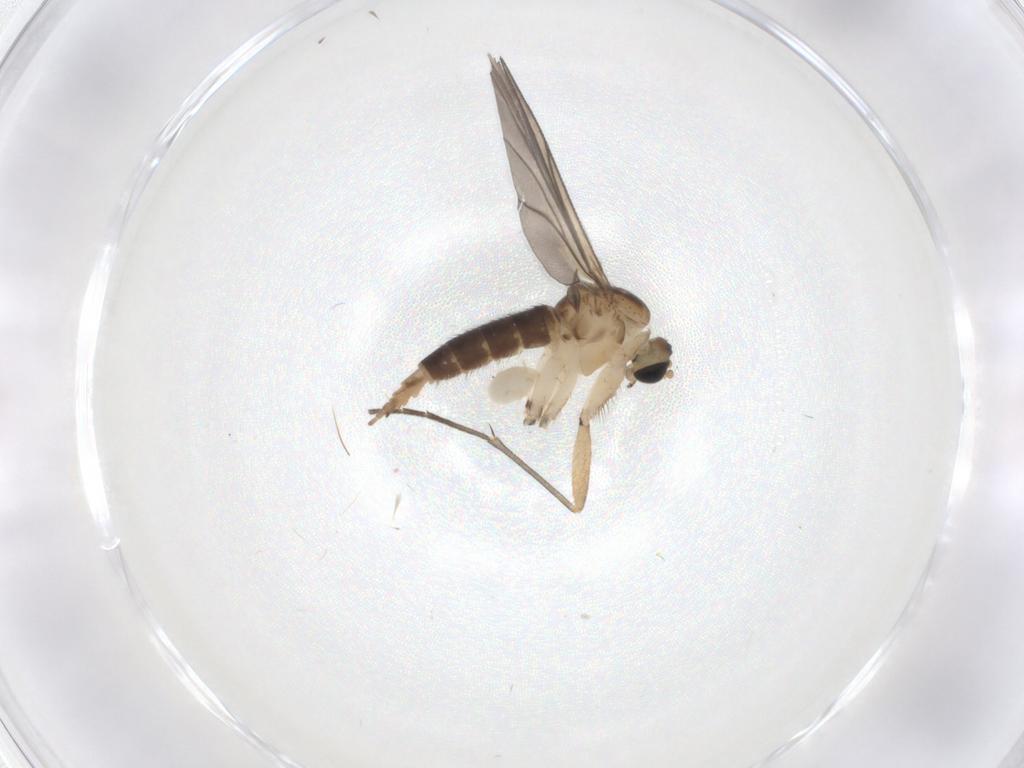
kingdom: Animalia
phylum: Arthropoda
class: Insecta
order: Diptera
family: Sciaridae
